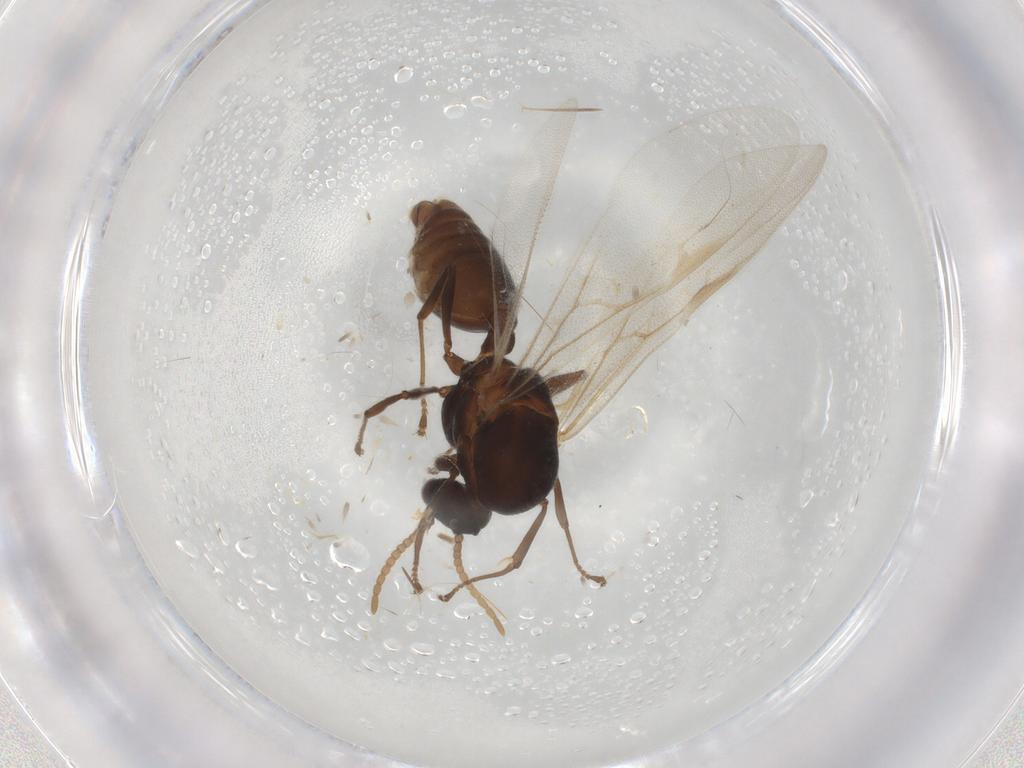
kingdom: Animalia
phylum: Arthropoda
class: Insecta
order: Hymenoptera
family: Formicidae
